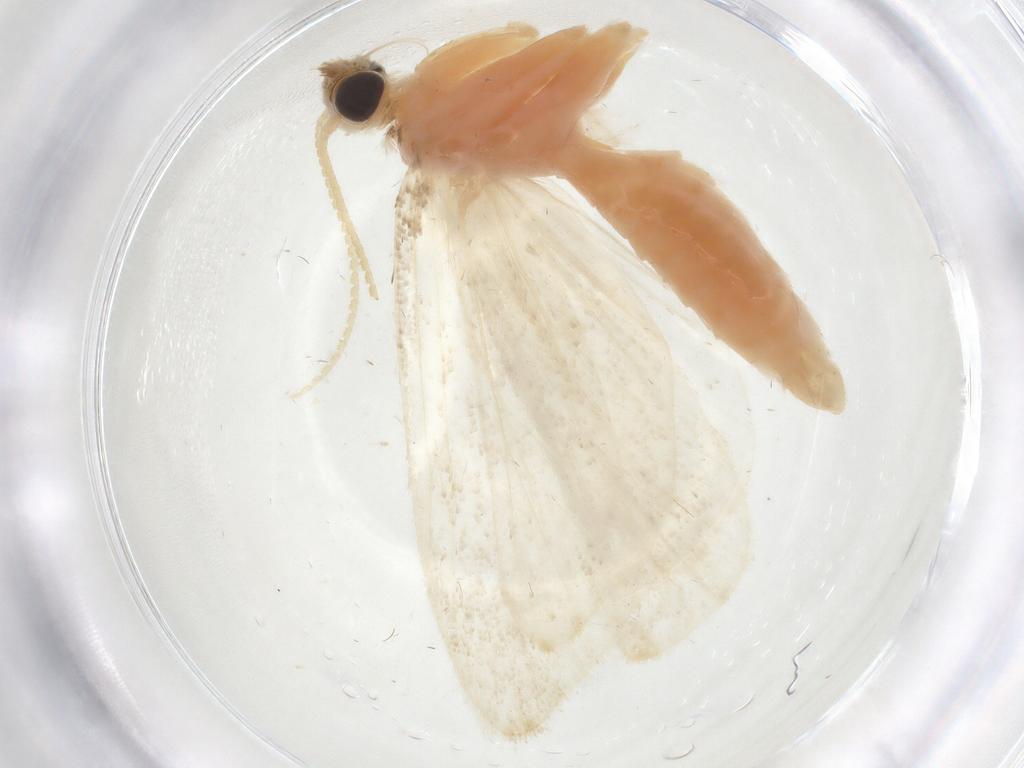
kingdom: Animalia
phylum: Arthropoda
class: Insecta
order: Lepidoptera
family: Crambidae
